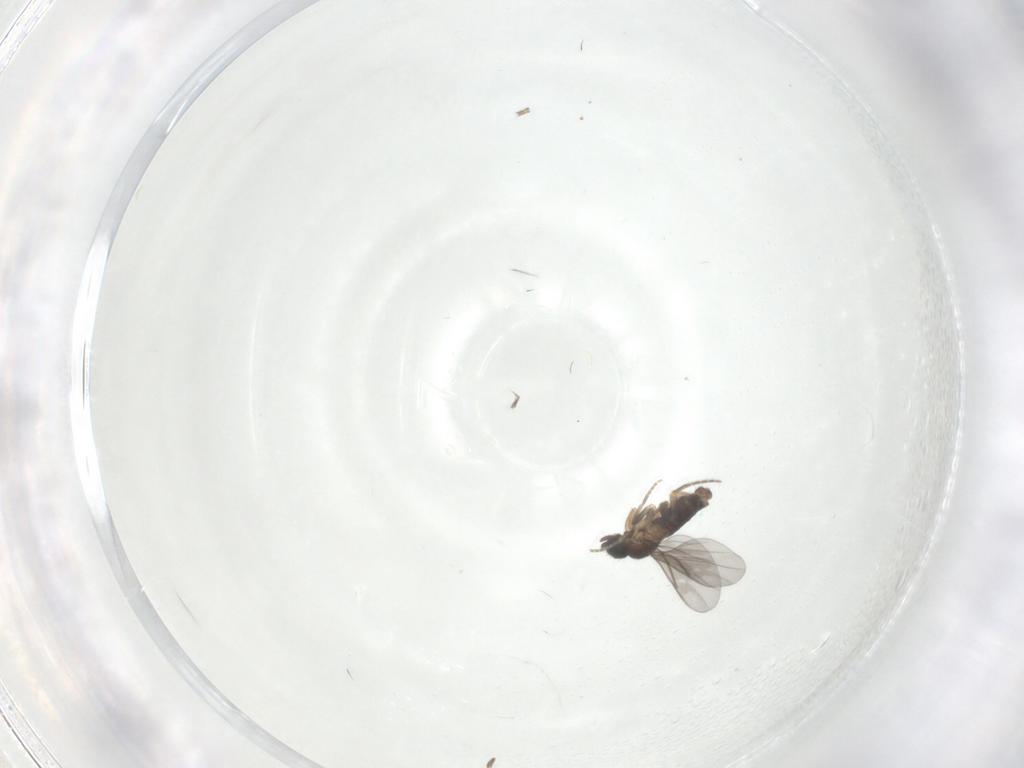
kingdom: Animalia
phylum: Arthropoda
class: Insecta
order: Diptera
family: Phoridae
